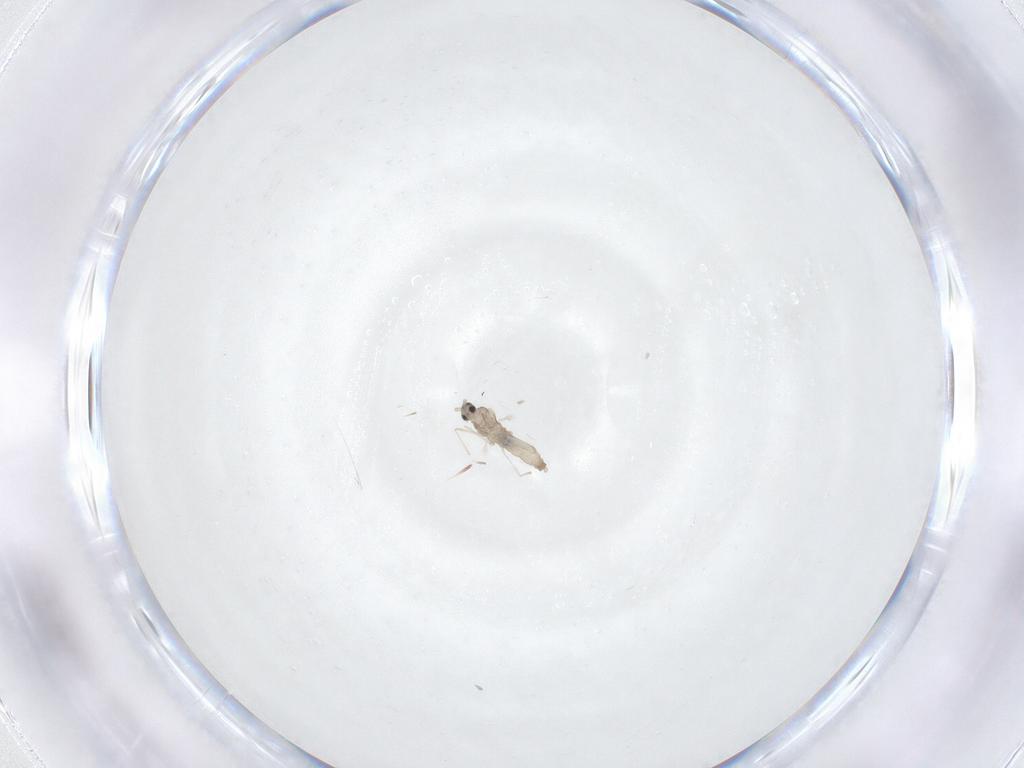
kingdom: Animalia
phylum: Arthropoda
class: Insecta
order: Diptera
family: Cecidomyiidae
